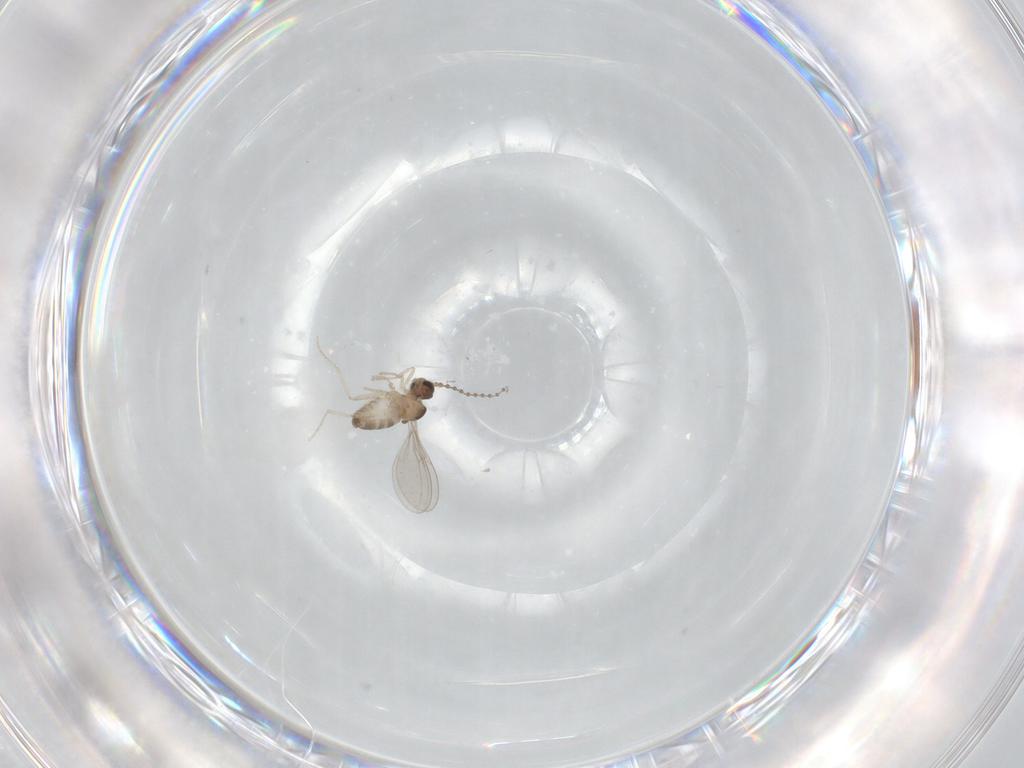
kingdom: Animalia
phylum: Arthropoda
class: Insecta
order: Diptera
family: Cecidomyiidae
